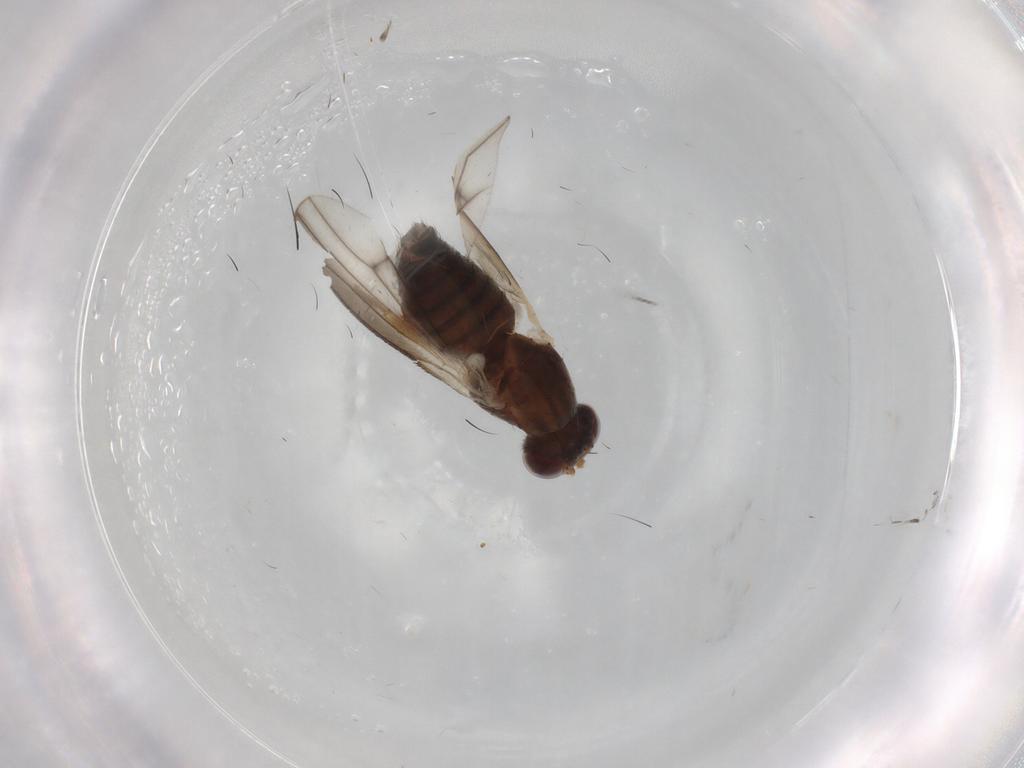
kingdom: Animalia
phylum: Arthropoda
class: Insecta
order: Diptera
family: Heleomyzidae
